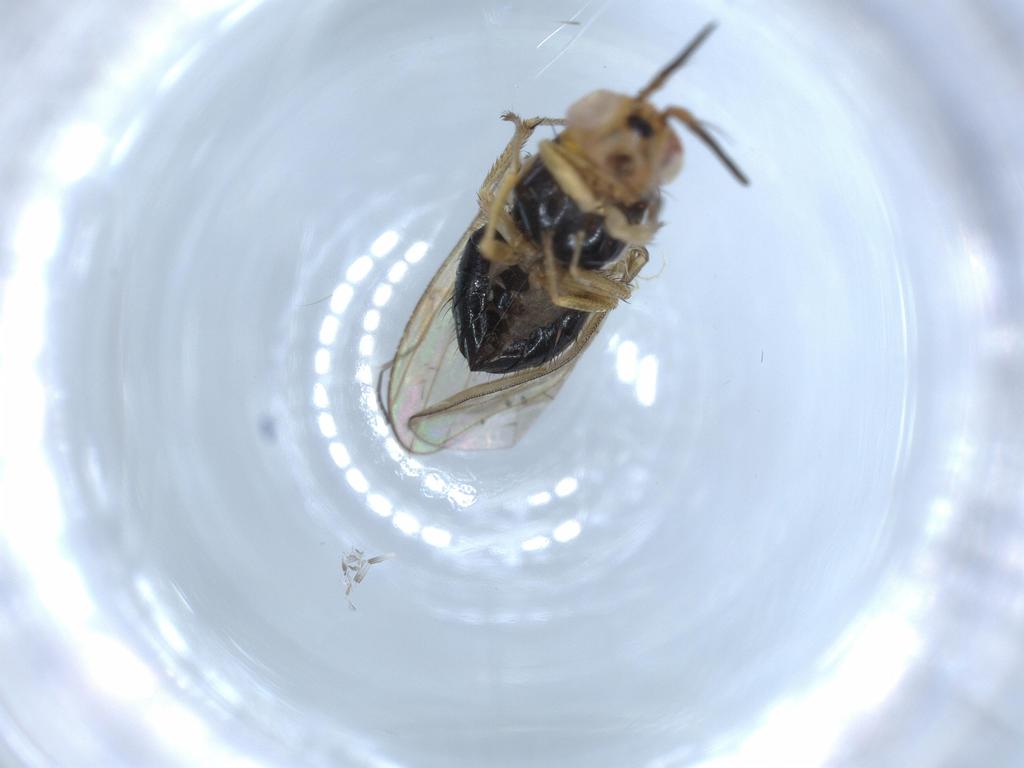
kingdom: Animalia
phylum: Arthropoda
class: Insecta
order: Diptera
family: Lauxaniidae
